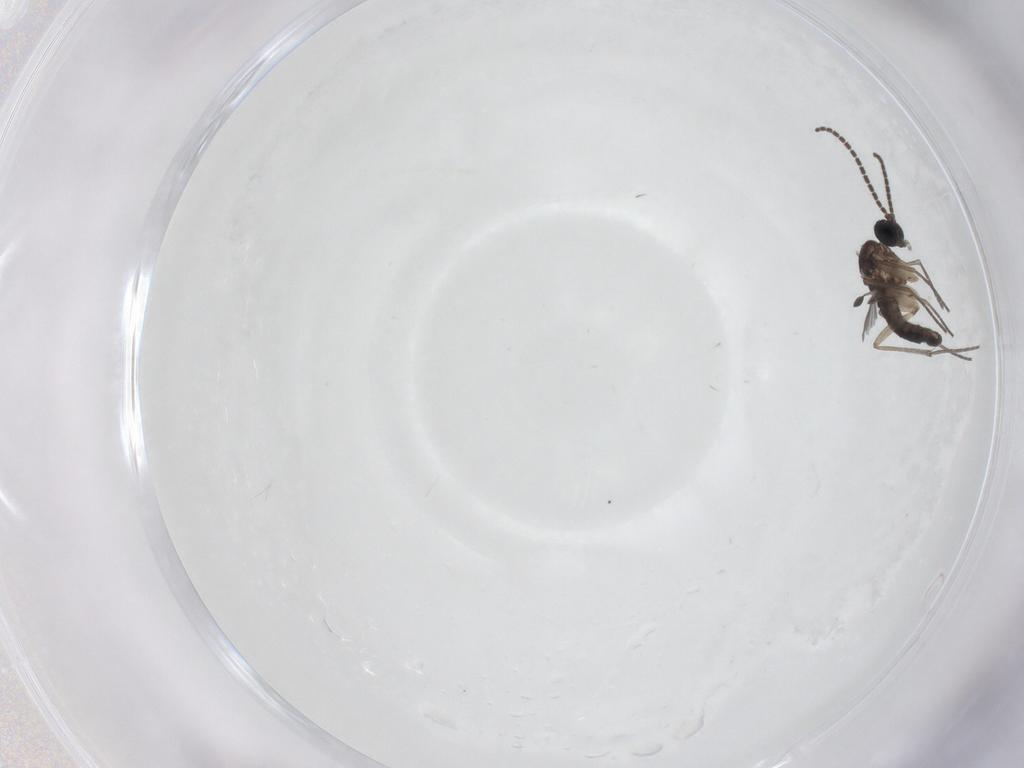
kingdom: Animalia
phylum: Arthropoda
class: Insecta
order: Diptera
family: Sciaridae
